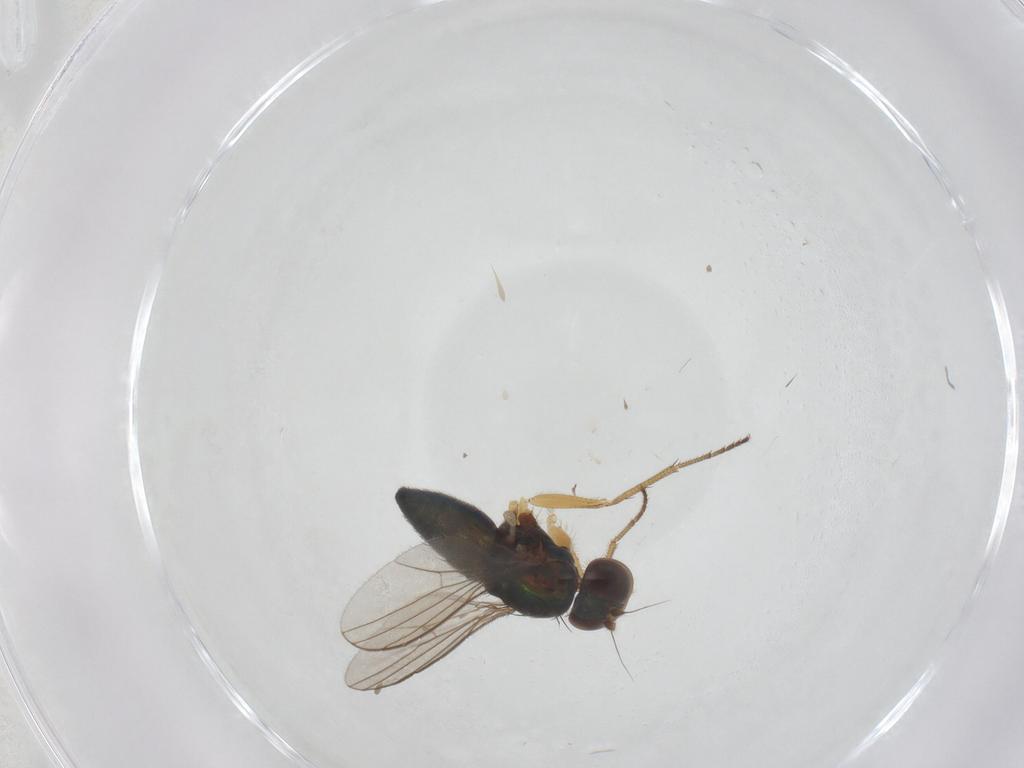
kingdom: Animalia
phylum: Arthropoda
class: Insecta
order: Diptera
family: Dolichopodidae
